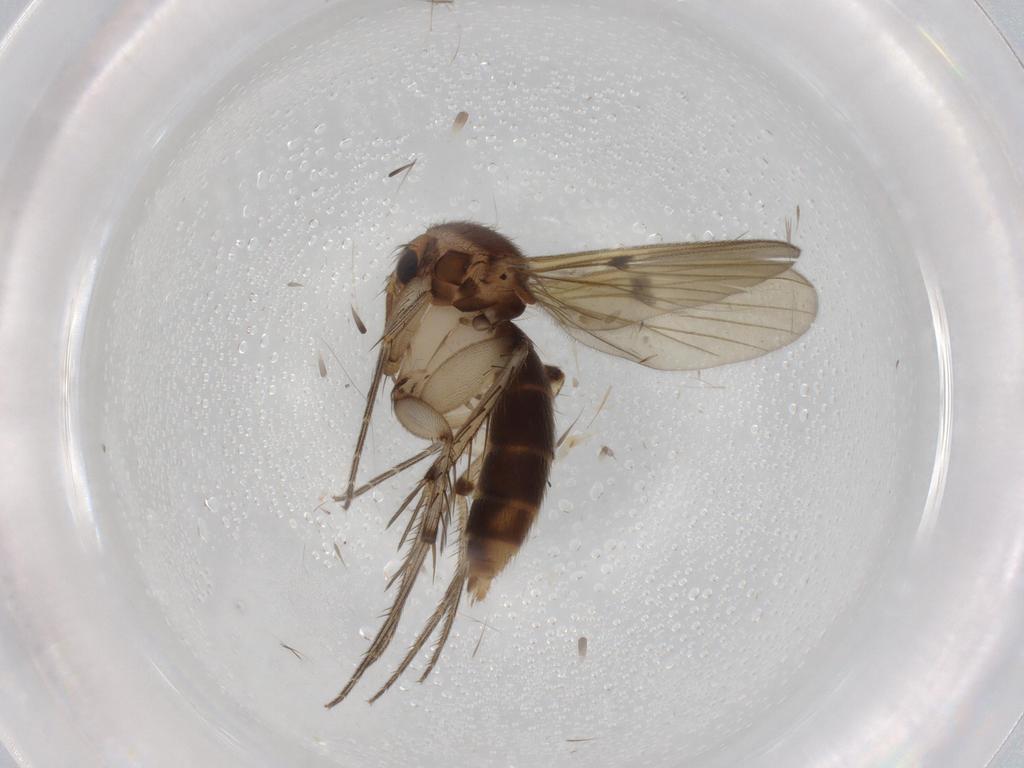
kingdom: Animalia
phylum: Arthropoda
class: Insecta
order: Diptera
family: Sphaeroceridae
